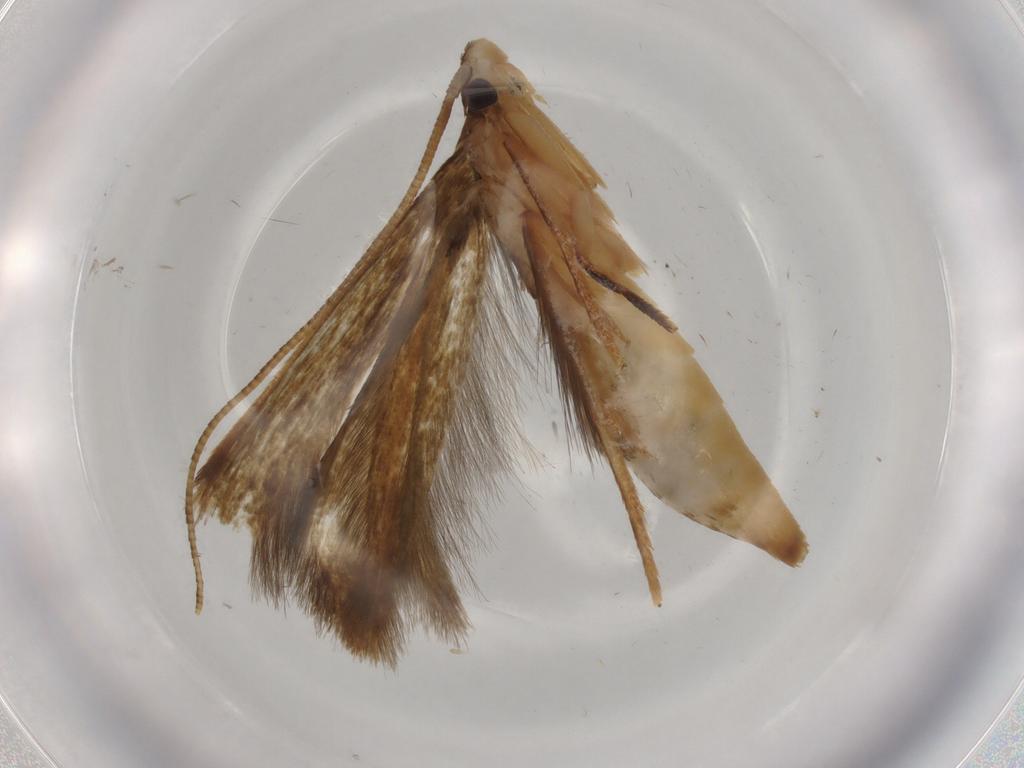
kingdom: Animalia
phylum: Arthropoda
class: Insecta
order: Lepidoptera
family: Tineidae
